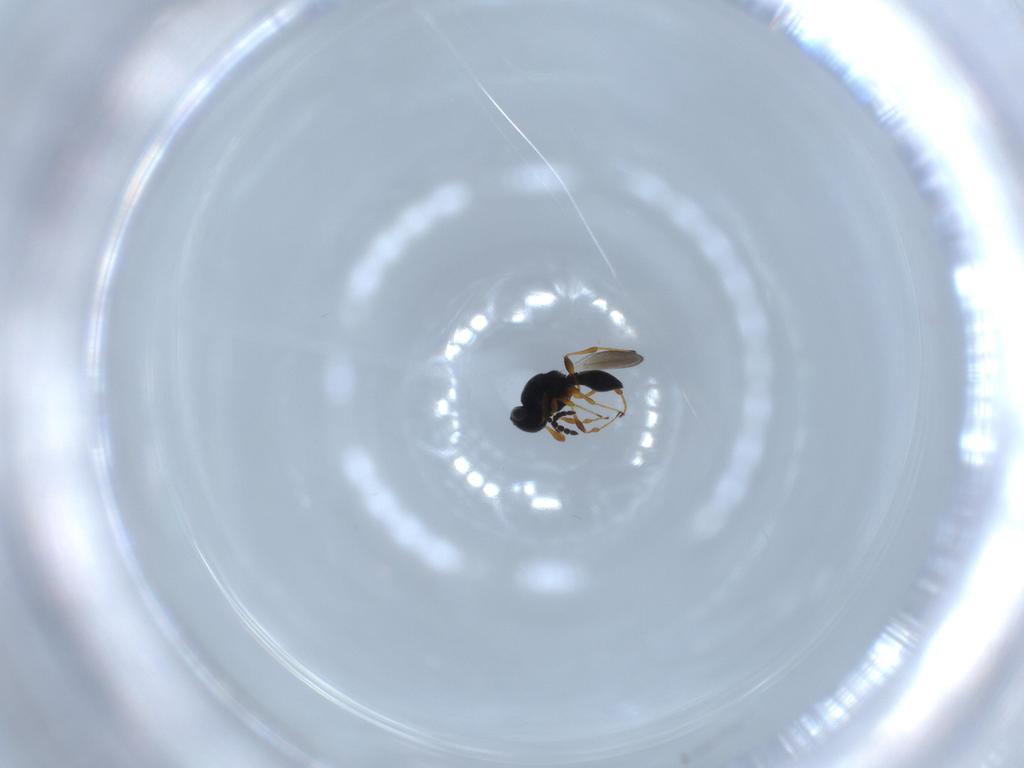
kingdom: Animalia
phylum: Arthropoda
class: Insecta
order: Hymenoptera
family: Platygastridae
